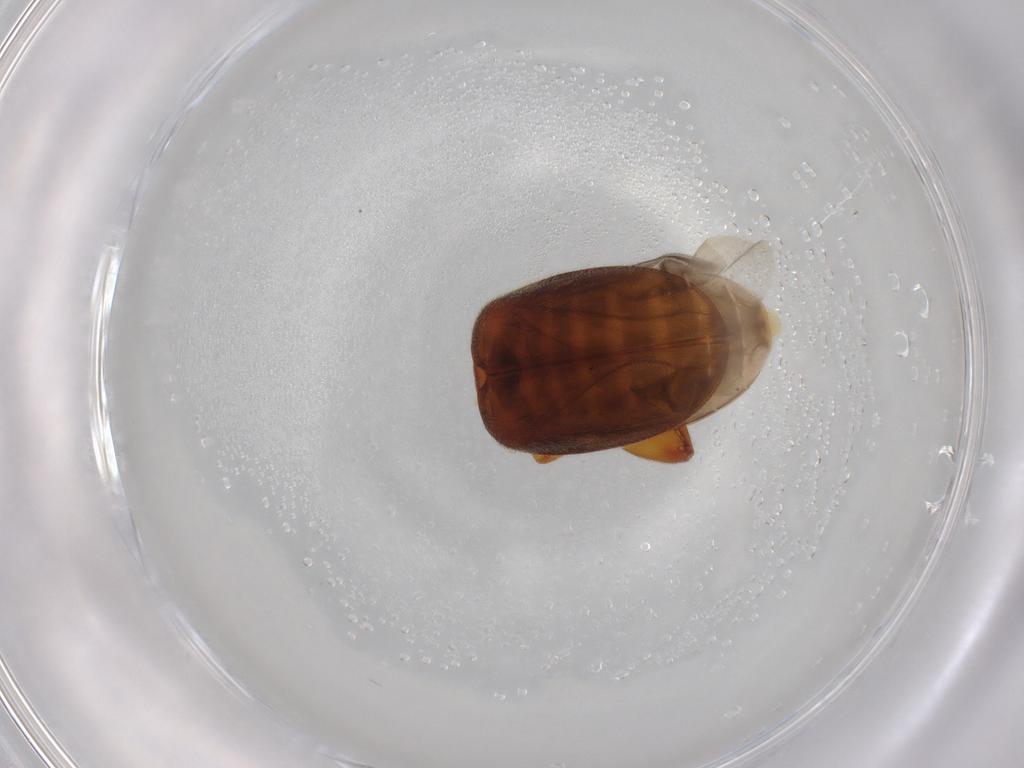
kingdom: Animalia
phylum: Arthropoda
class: Insecta
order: Coleoptera
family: Scirtidae
